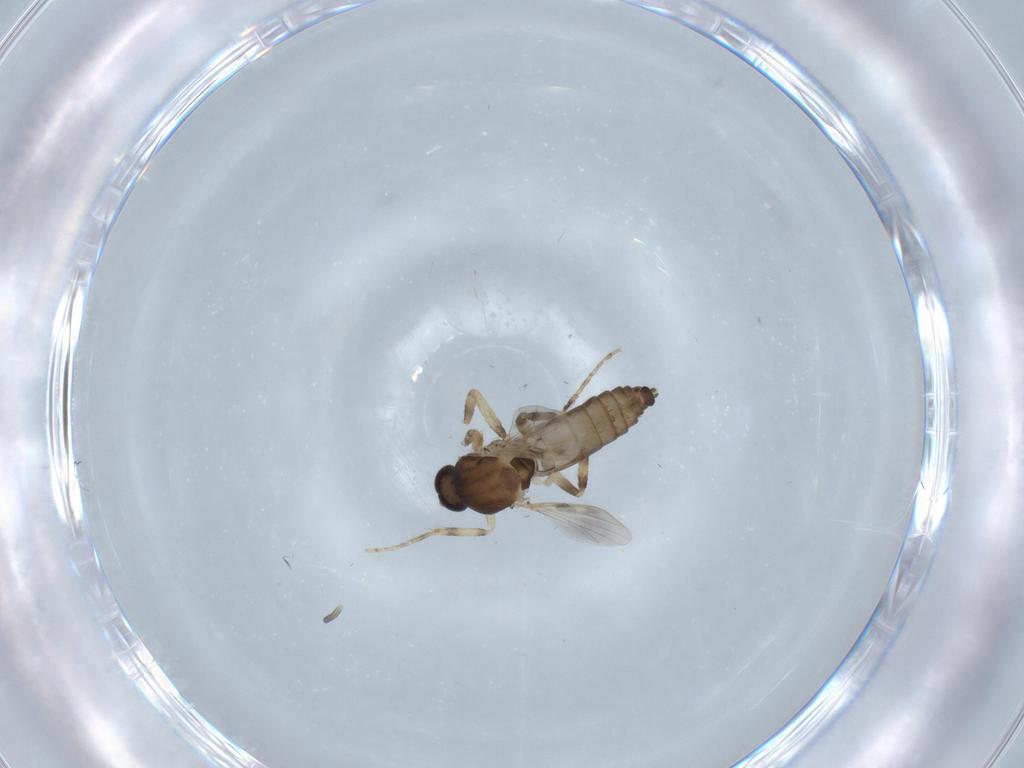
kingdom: Animalia
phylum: Arthropoda
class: Insecta
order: Diptera
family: Ceratopogonidae
